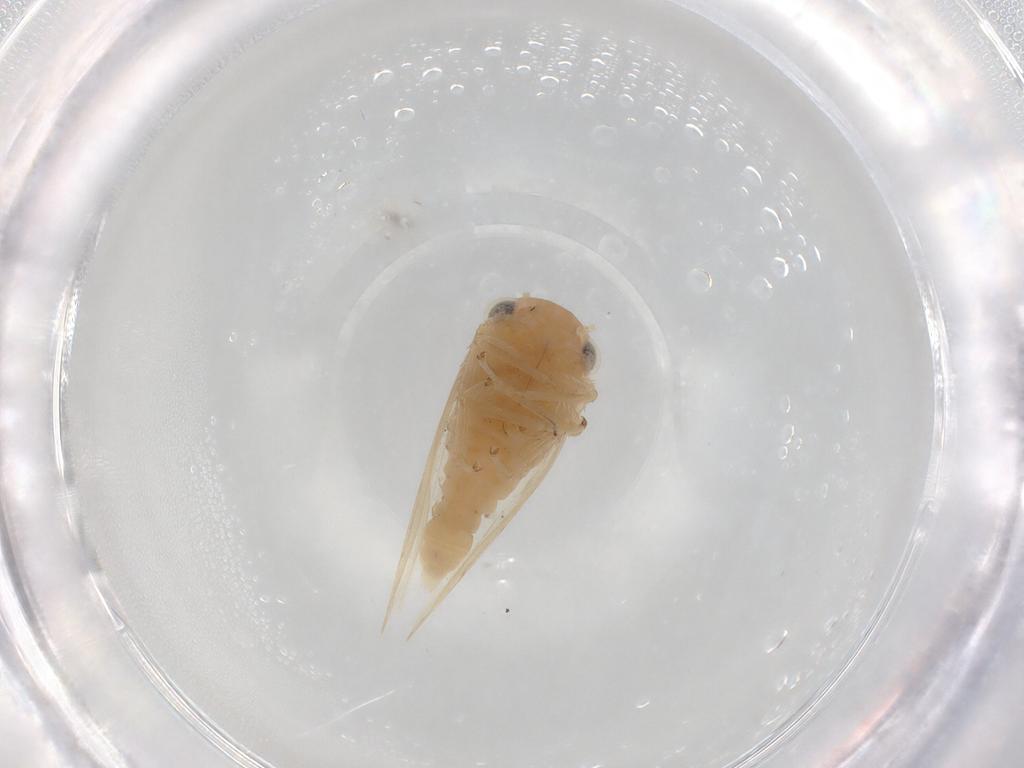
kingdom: Animalia
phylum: Arthropoda
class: Insecta
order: Hemiptera
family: Cicadellidae
